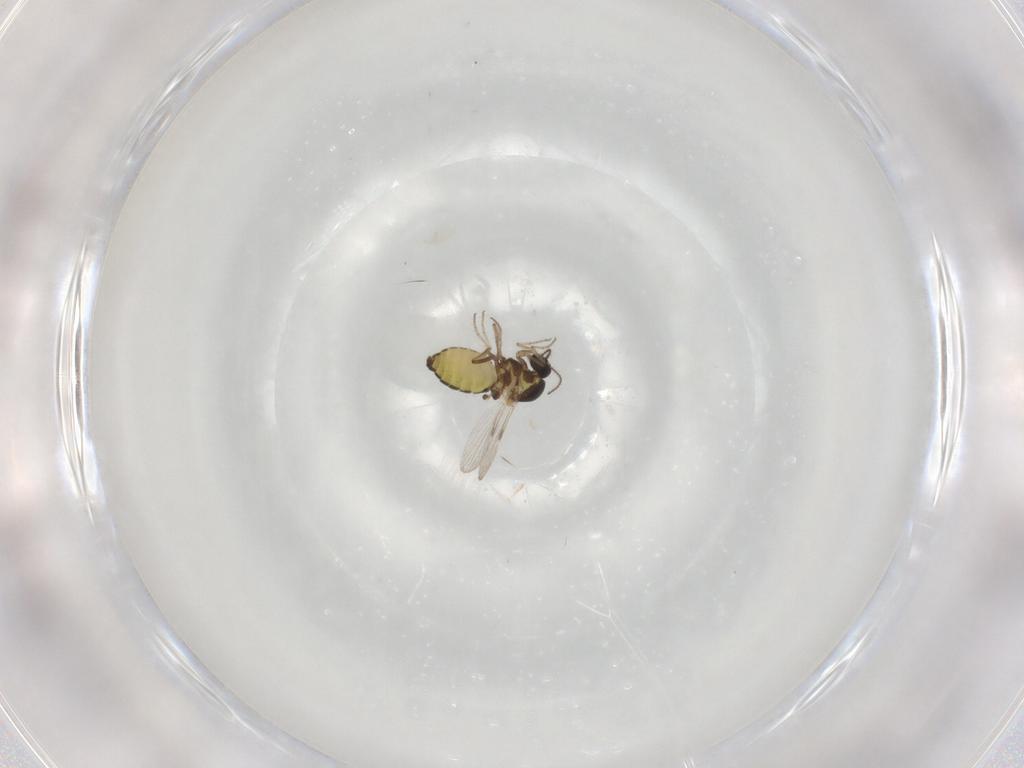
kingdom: Animalia
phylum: Arthropoda
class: Insecta
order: Diptera
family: Ceratopogonidae
